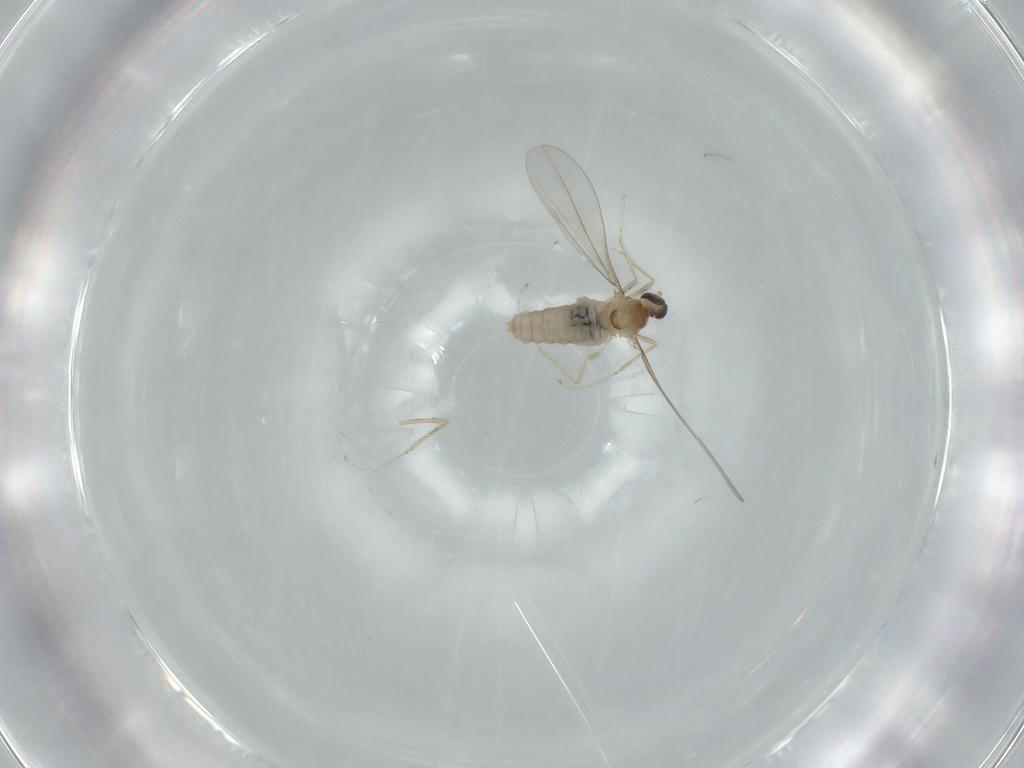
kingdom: Animalia
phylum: Arthropoda
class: Insecta
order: Diptera
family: Cecidomyiidae
